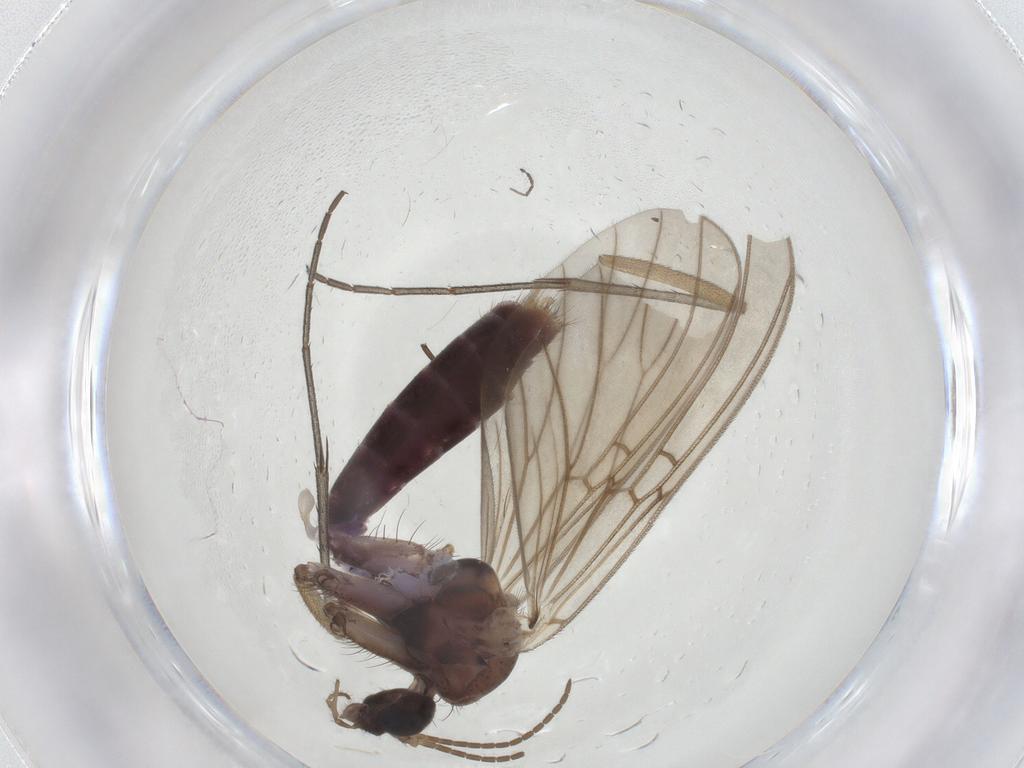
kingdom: Animalia
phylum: Arthropoda
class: Insecta
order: Diptera
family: Mycetophilidae
